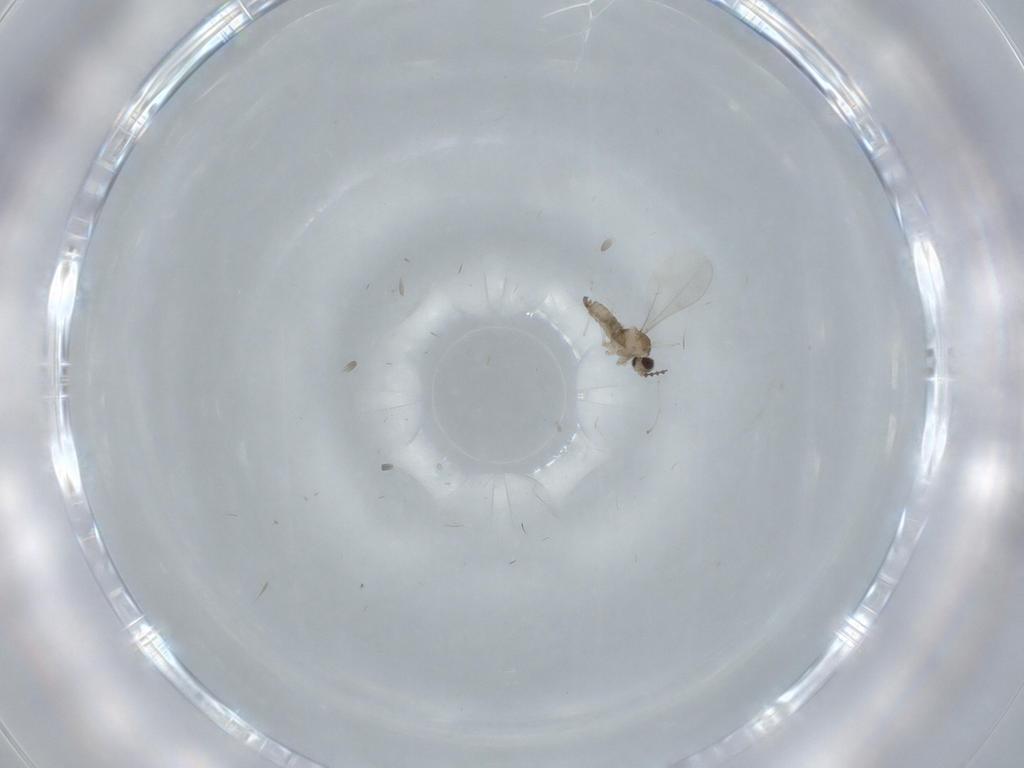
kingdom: Animalia
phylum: Arthropoda
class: Insecta
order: Diptera
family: Cecidomyiidae
